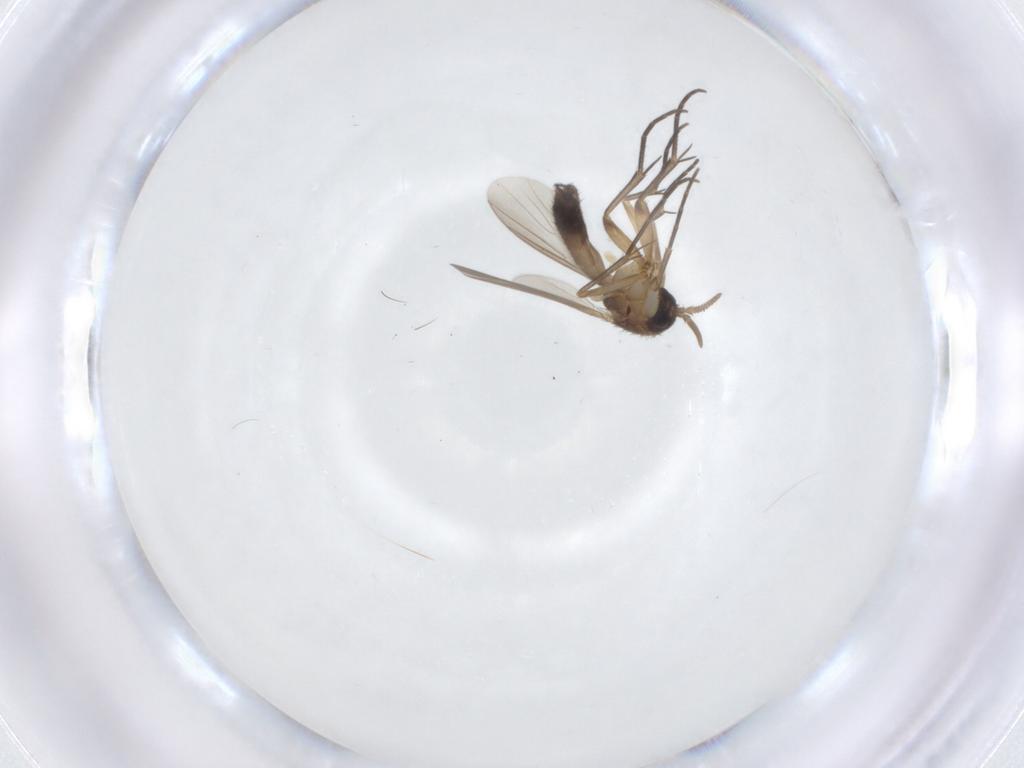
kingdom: Animalia
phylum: Arthropoda
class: Insecta
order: Diptera
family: Mycetophilidae
